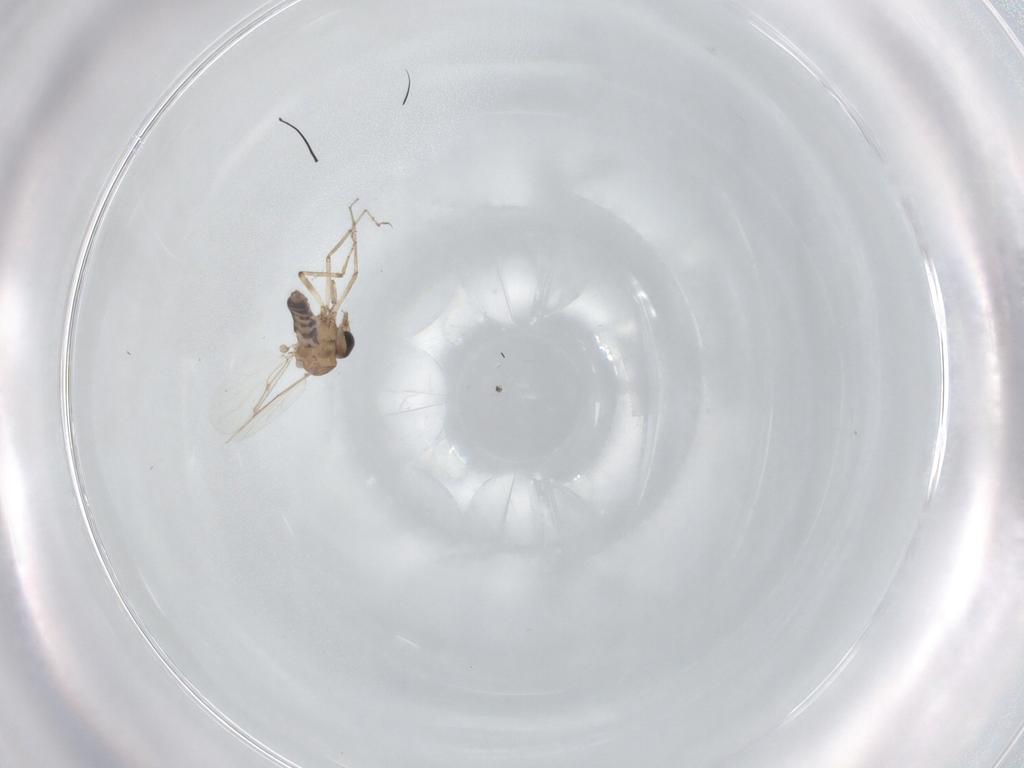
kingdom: Animalia
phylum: Arthropoda
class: Insecta
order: Diptera
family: Ceratopogonidae
